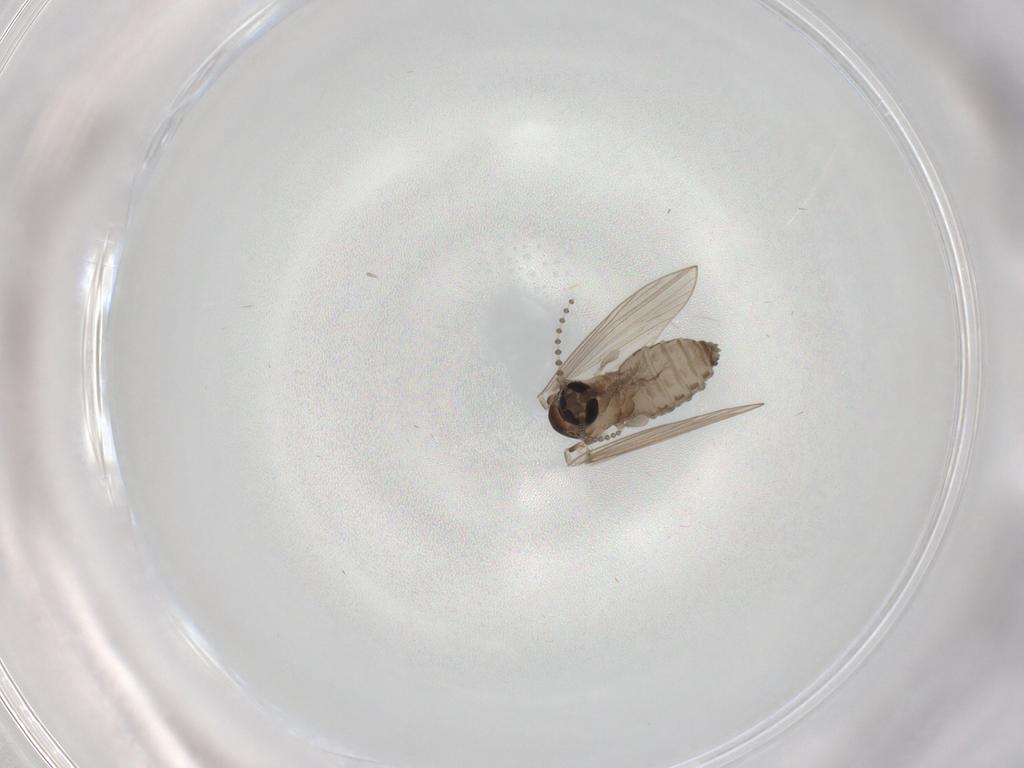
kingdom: Animalia
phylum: Arthropoda
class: Insecta
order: Diptera
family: Psychodidae
